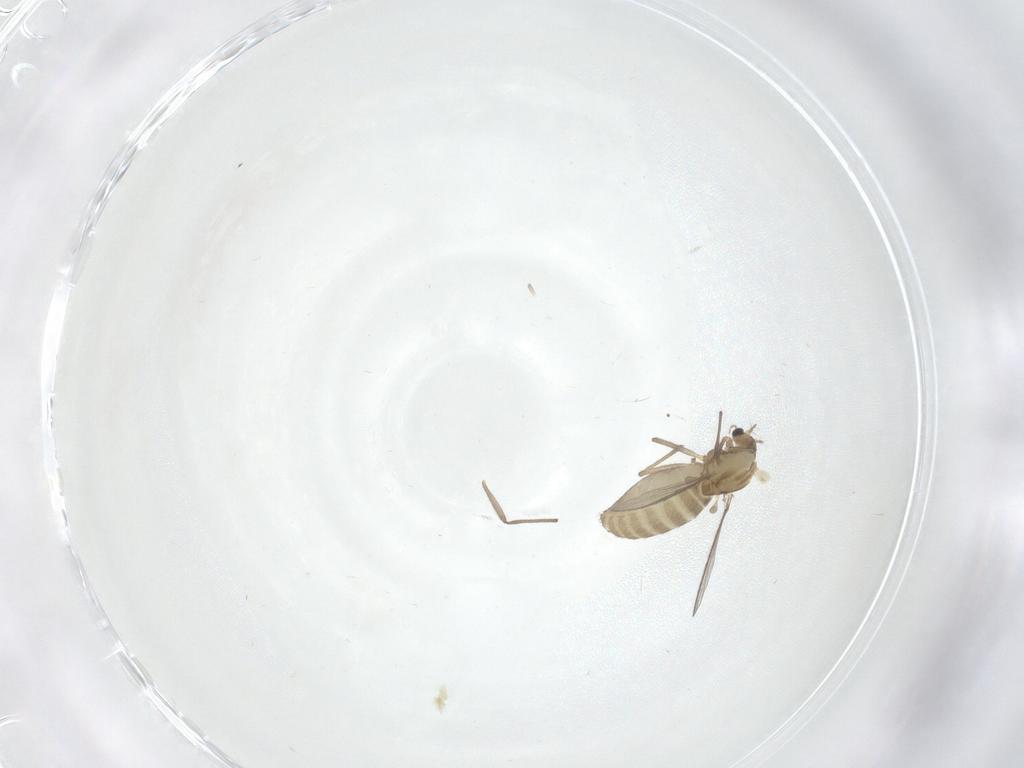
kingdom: Animalia
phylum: Arthropoda
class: Insecta
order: Diptera
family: Chironomidae
